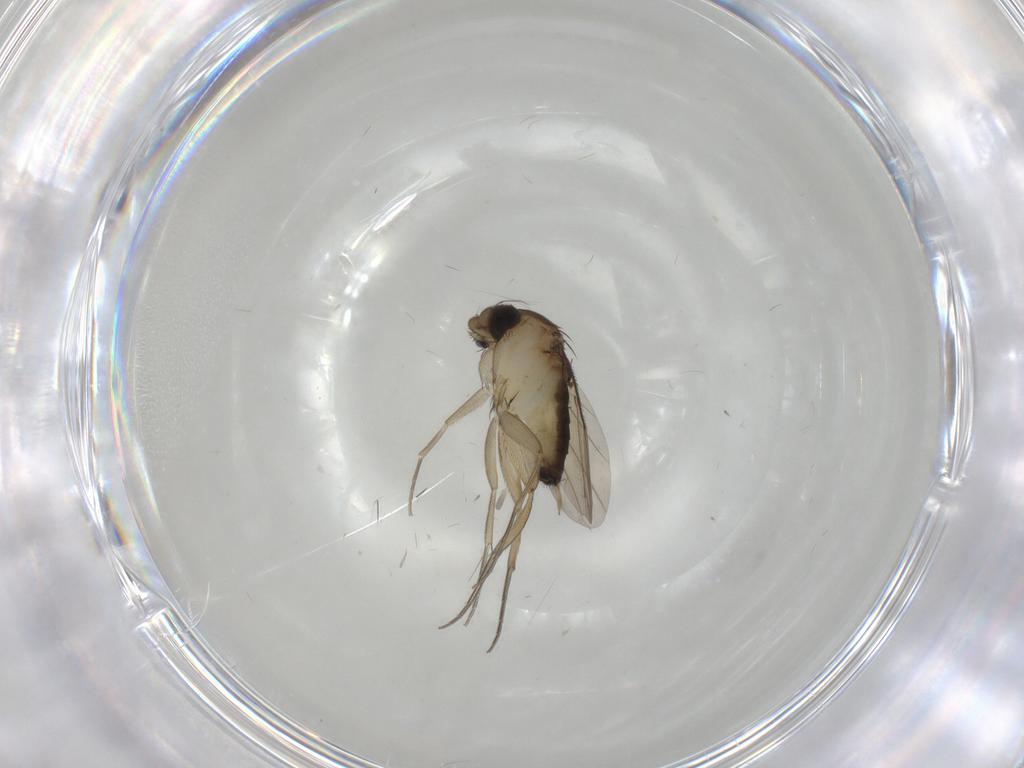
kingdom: Animalia
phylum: Arthropoda
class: Insecta
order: Diptera
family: Phoridae
